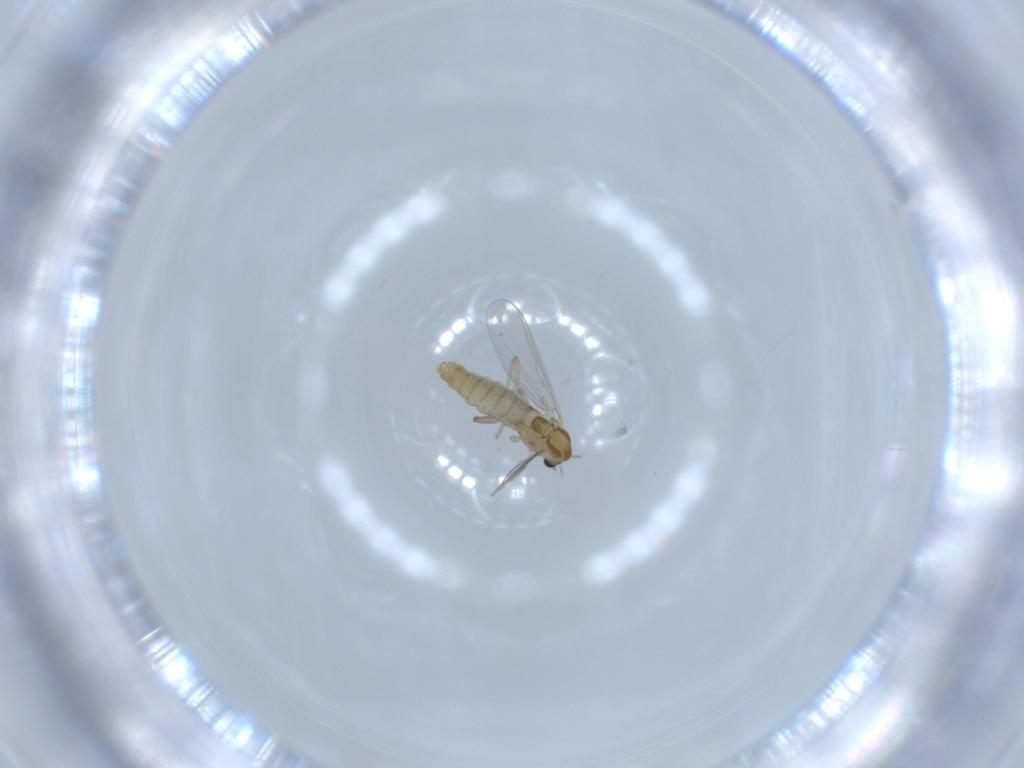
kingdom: Animalia
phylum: Arthropoda
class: Insecta
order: Diptera
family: Chironomidae
